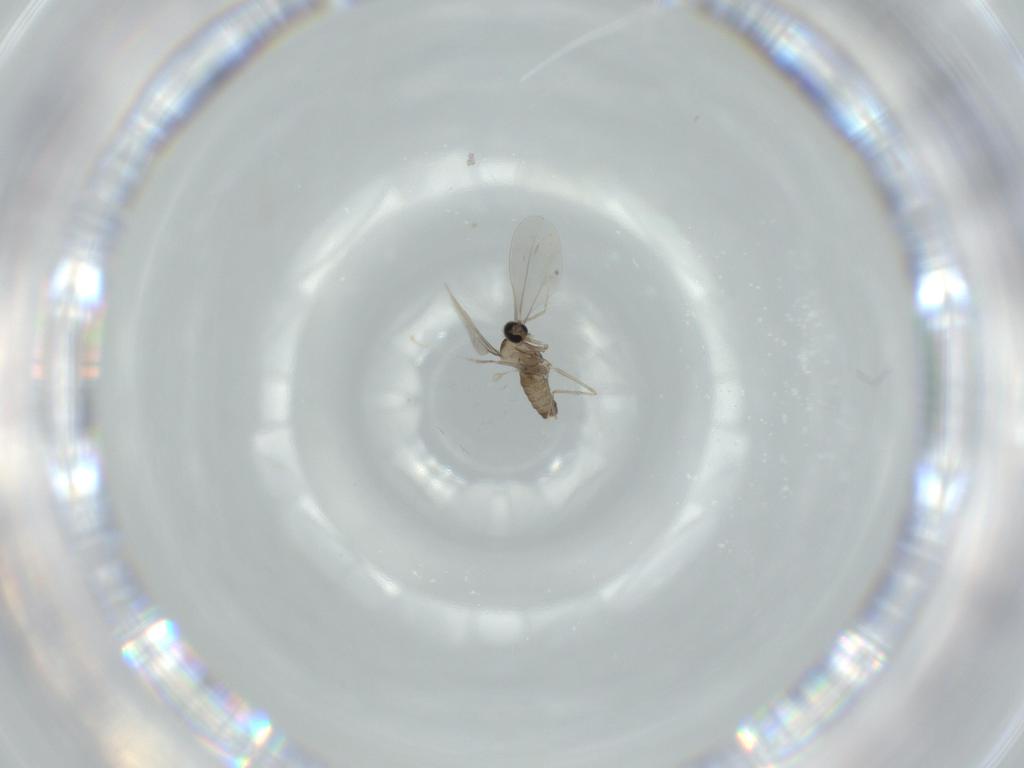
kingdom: Animalia
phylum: Arthropoda
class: Insecta
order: Diptera
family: Cecidomyiidae
